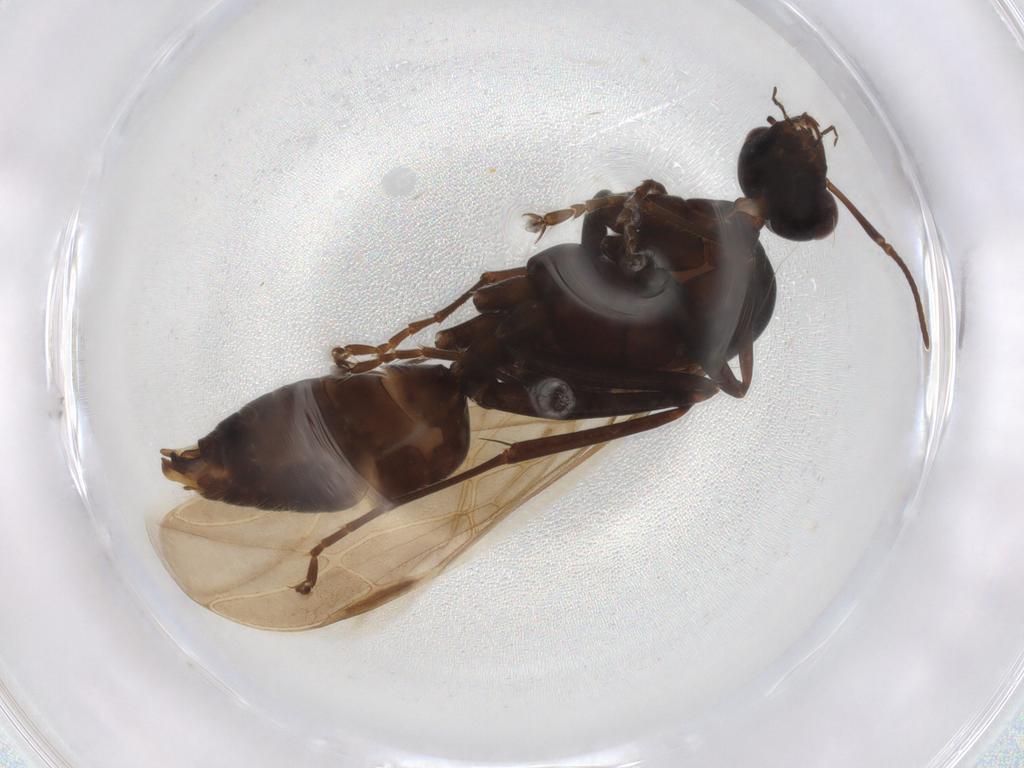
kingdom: Animalia
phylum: Arthropoda
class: Insecta
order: Hymenoptera
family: Formicidae
